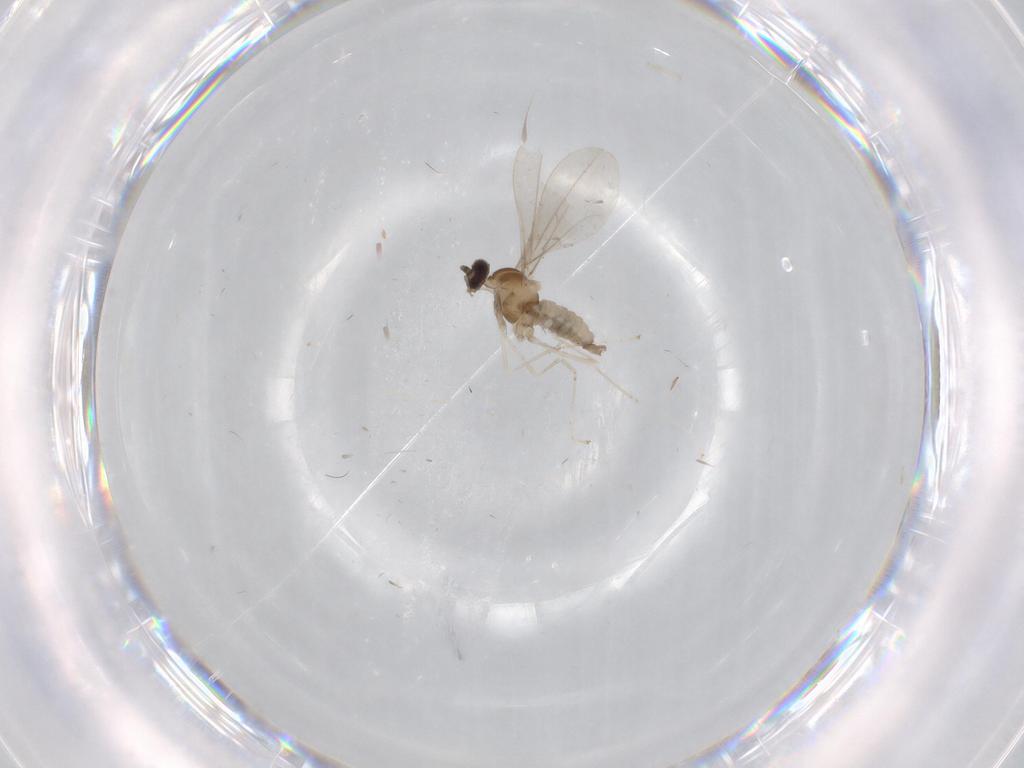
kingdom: Animalia
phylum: Arthropoda
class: Insecta
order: Diptera
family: Cecidomyiidae
